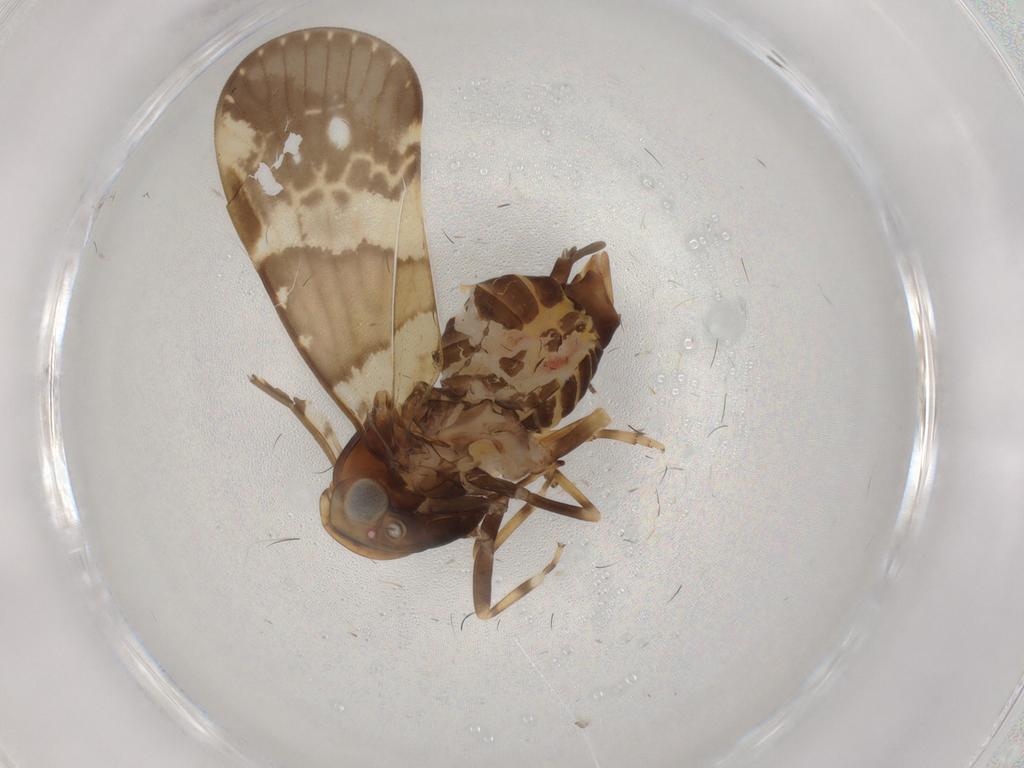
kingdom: Animalia
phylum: Arthropoda
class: Insecta
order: Hemiptera
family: Cixiidae
